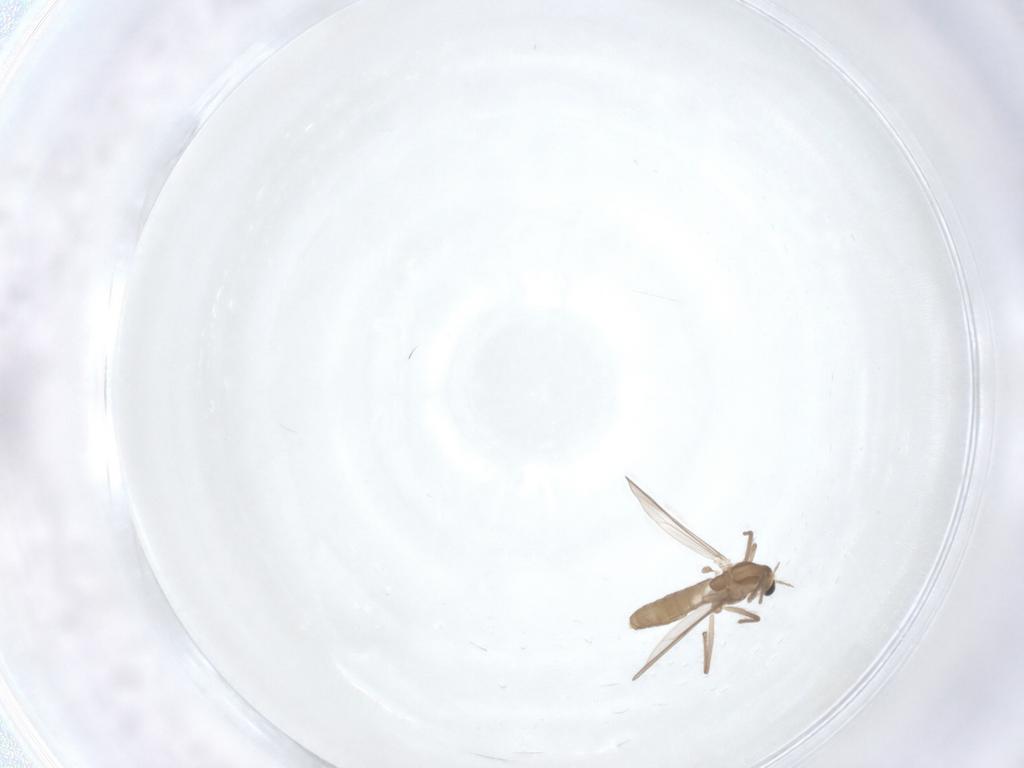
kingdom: Animalia
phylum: Arthropoda
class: Insecta
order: Diptera
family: Chironomidae
